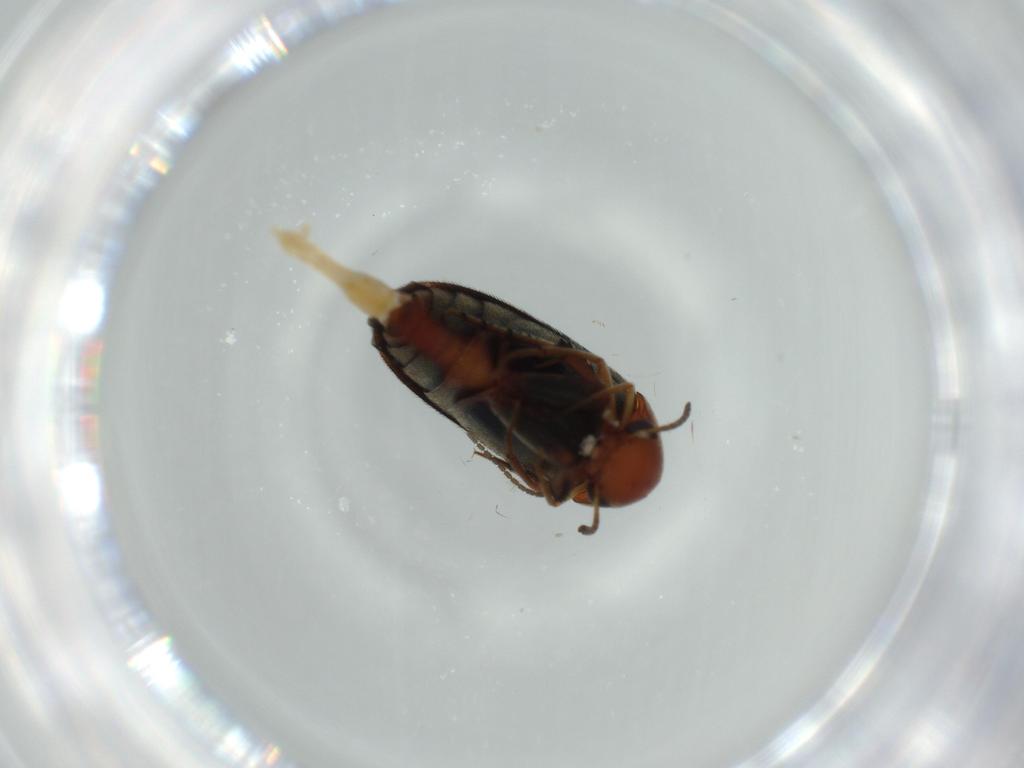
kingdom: Animalia
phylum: Arthropoda
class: Insecta
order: Coleoptera
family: Mordellidae
